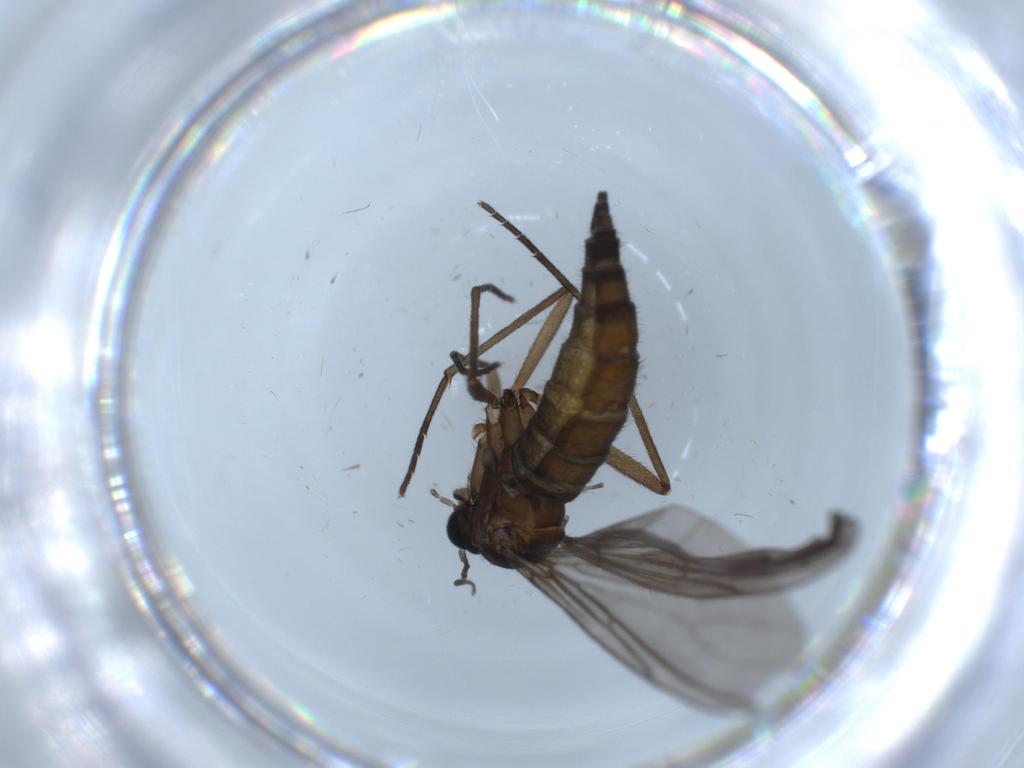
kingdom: Animalia
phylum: Arthropoda
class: Insecta
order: Diptera
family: Sciaridae
